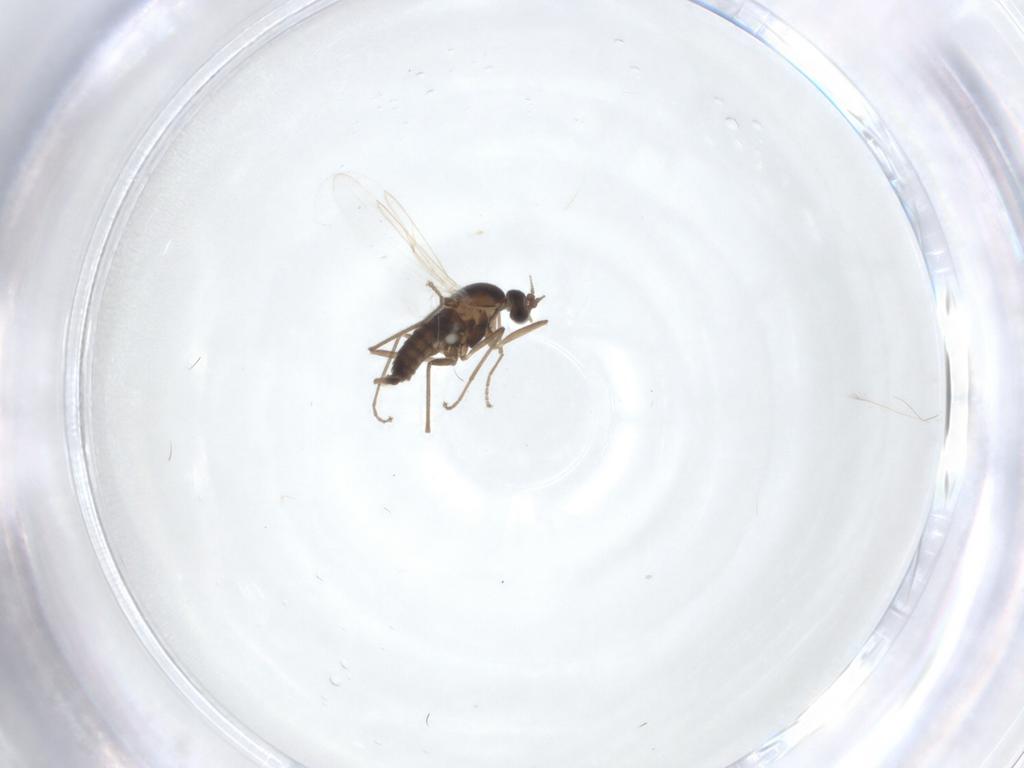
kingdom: Animalia
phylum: Arthropoda
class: Insecta
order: Diptera
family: Cecidomyiidae
